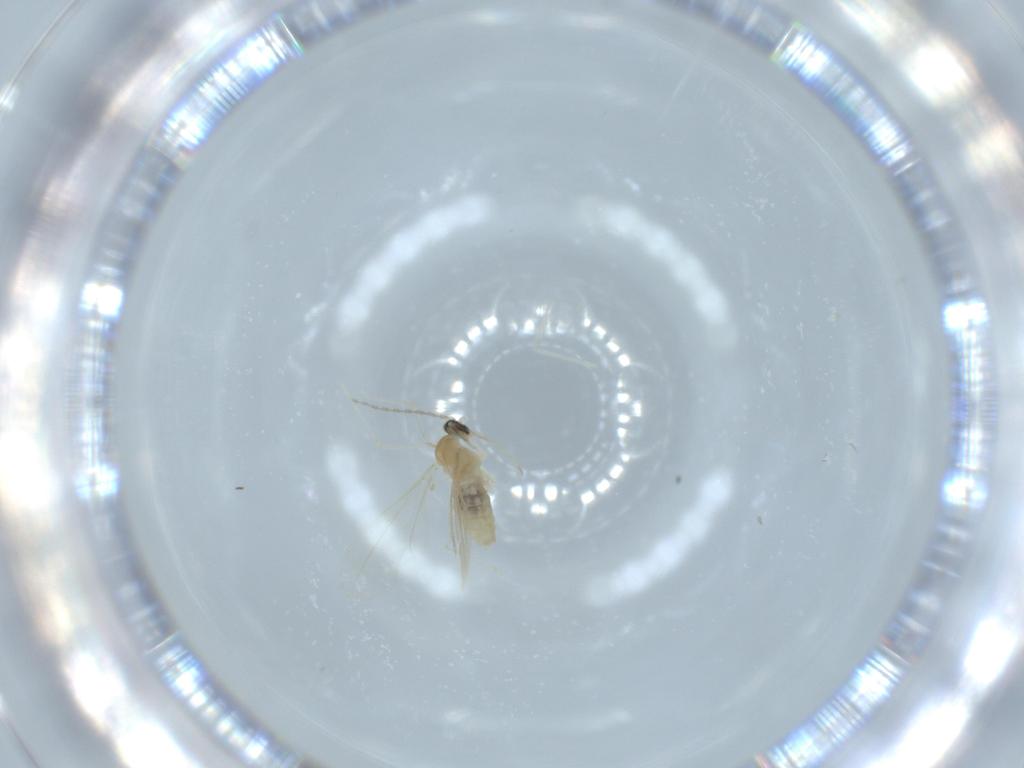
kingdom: Animalia
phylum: Arthropoda
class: Insecta
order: Diptera
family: Cecidomyiidae
